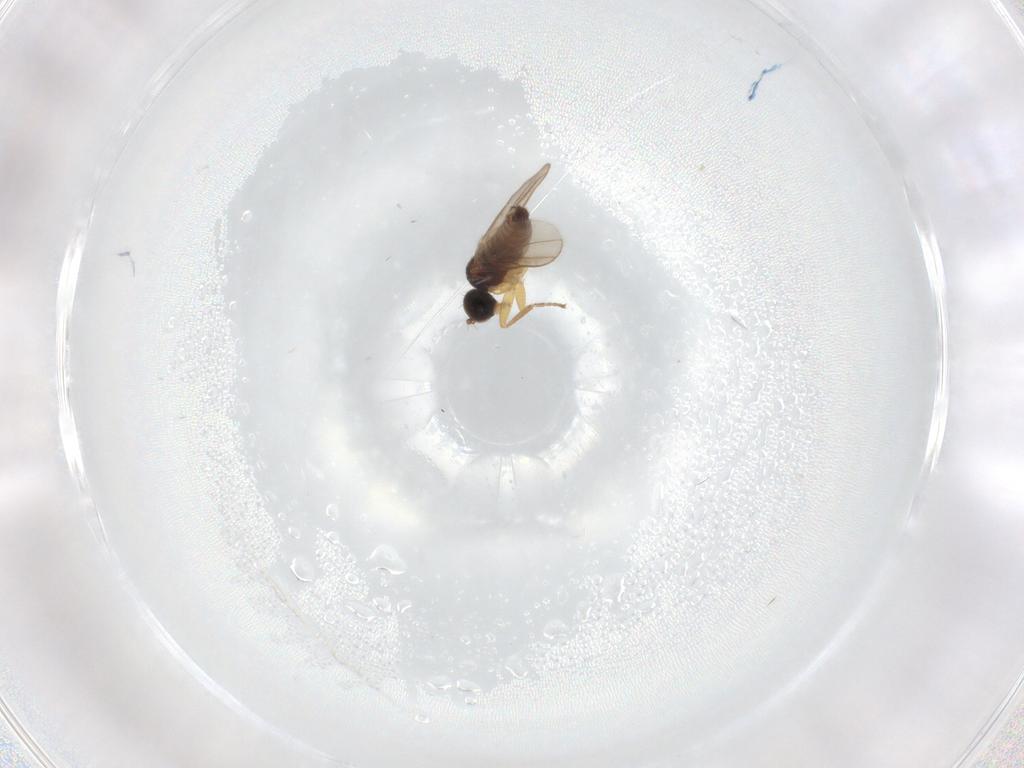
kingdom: Animalia
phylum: Arthropoda
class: Insecta
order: Diptera
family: Hybotidae
